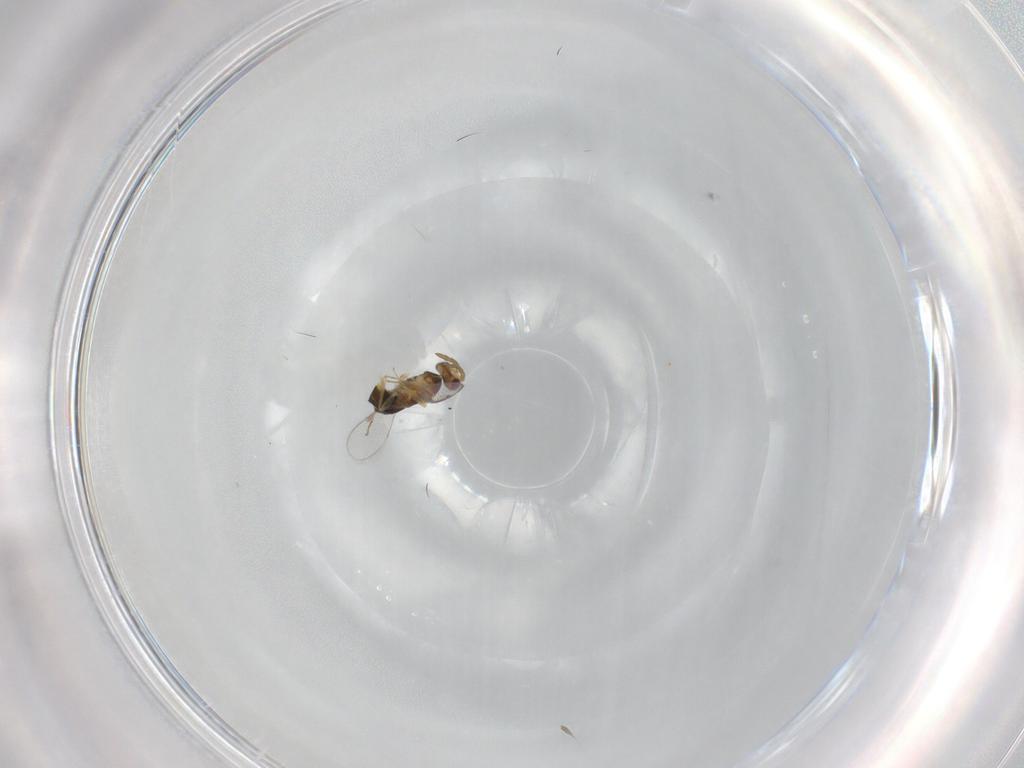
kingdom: Animalia
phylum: Arthropoda
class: Insecta
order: Hymenoptera
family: Aphelinidae
